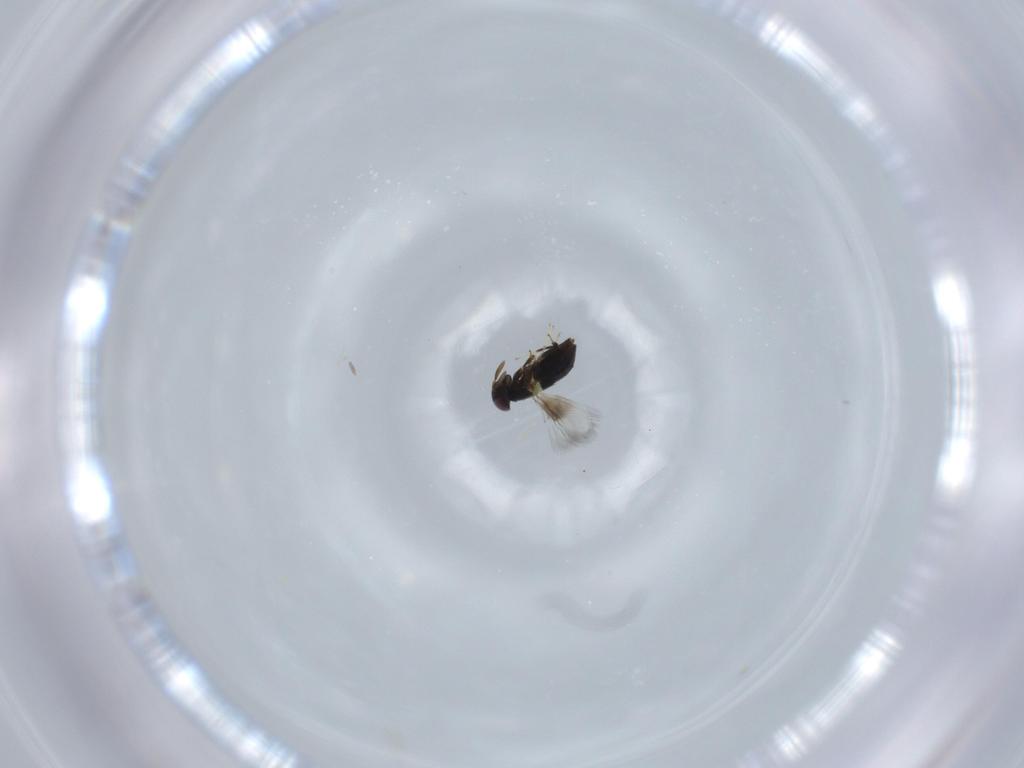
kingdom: Animalia
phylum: Arthropoda
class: Insecta
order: Hymenoptera
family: Signiphoridae
